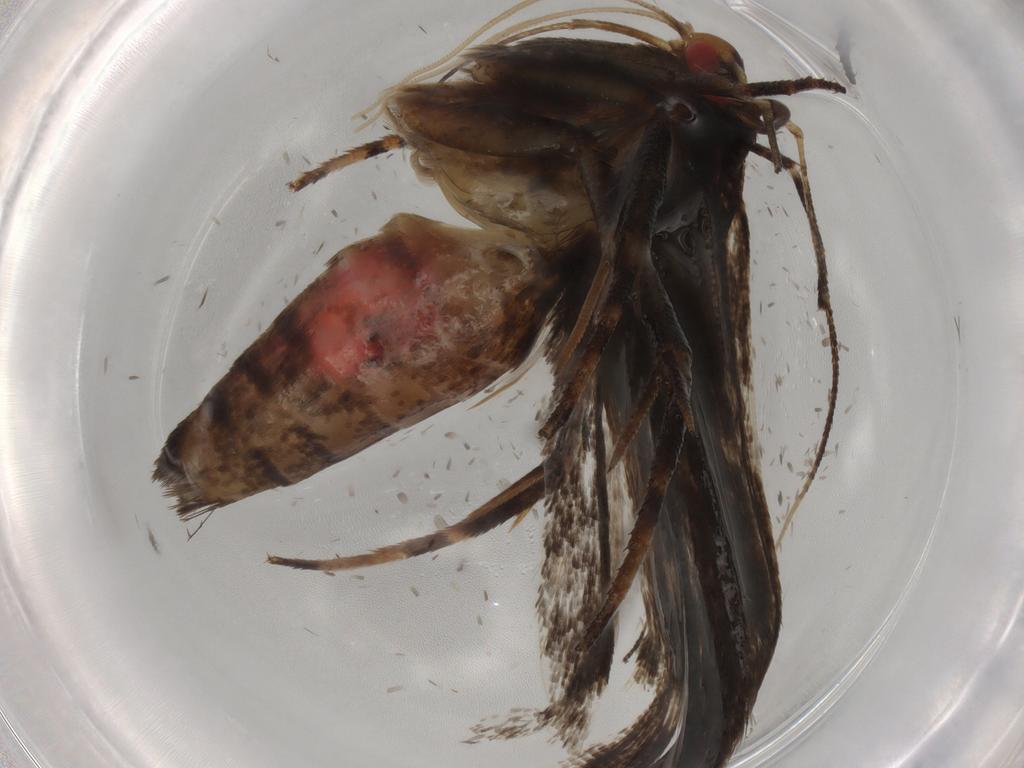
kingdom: Animalia
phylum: Arthropoda
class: Insecta
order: Lepidoptera
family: Gelechiidae
